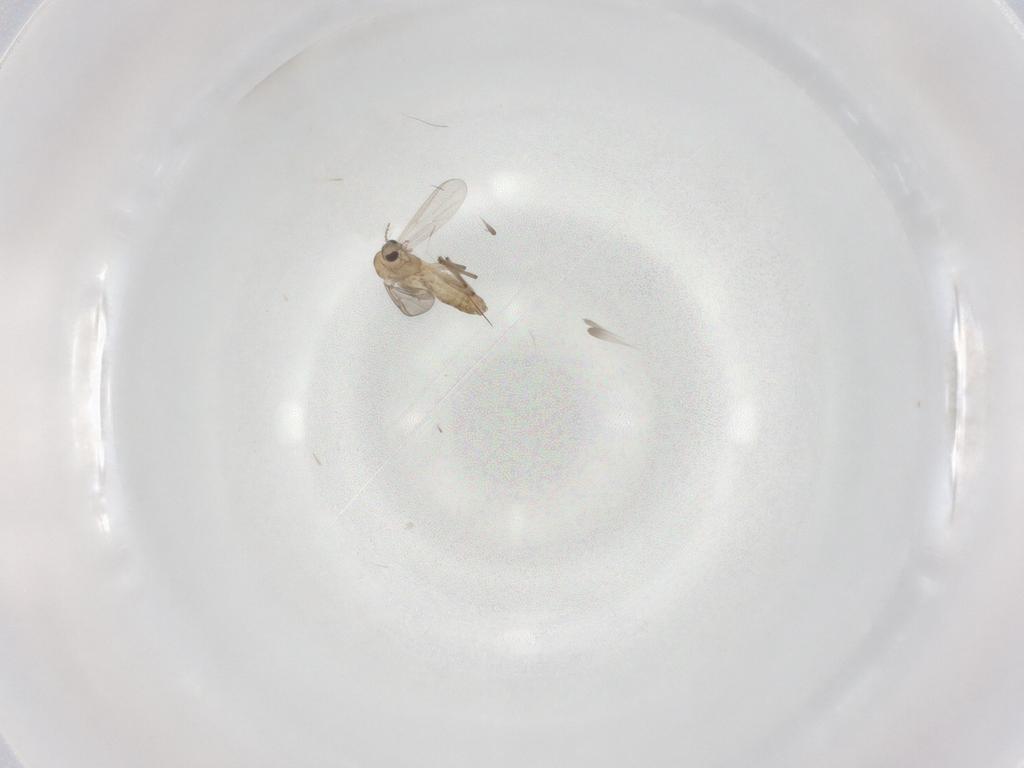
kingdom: Animalia
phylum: Arthropoda
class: Insecta
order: Diptera
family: Chironomidae
